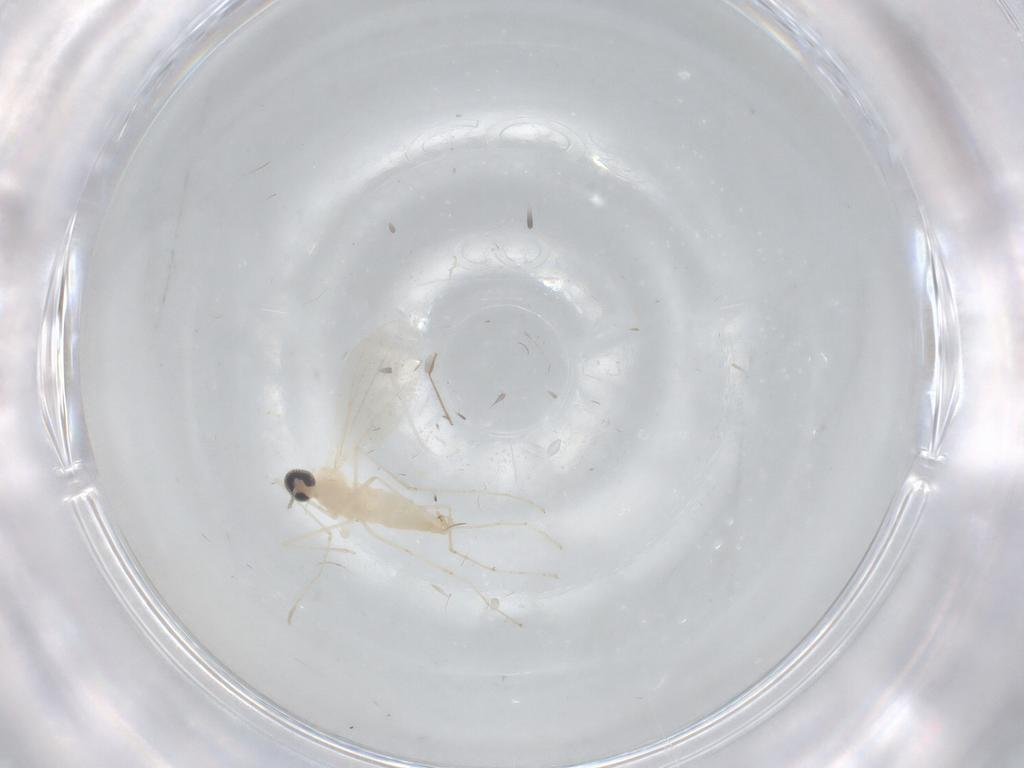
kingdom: Animalia
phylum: Arthropoda
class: Insecta
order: Diptera
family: Cecidomyiidae
